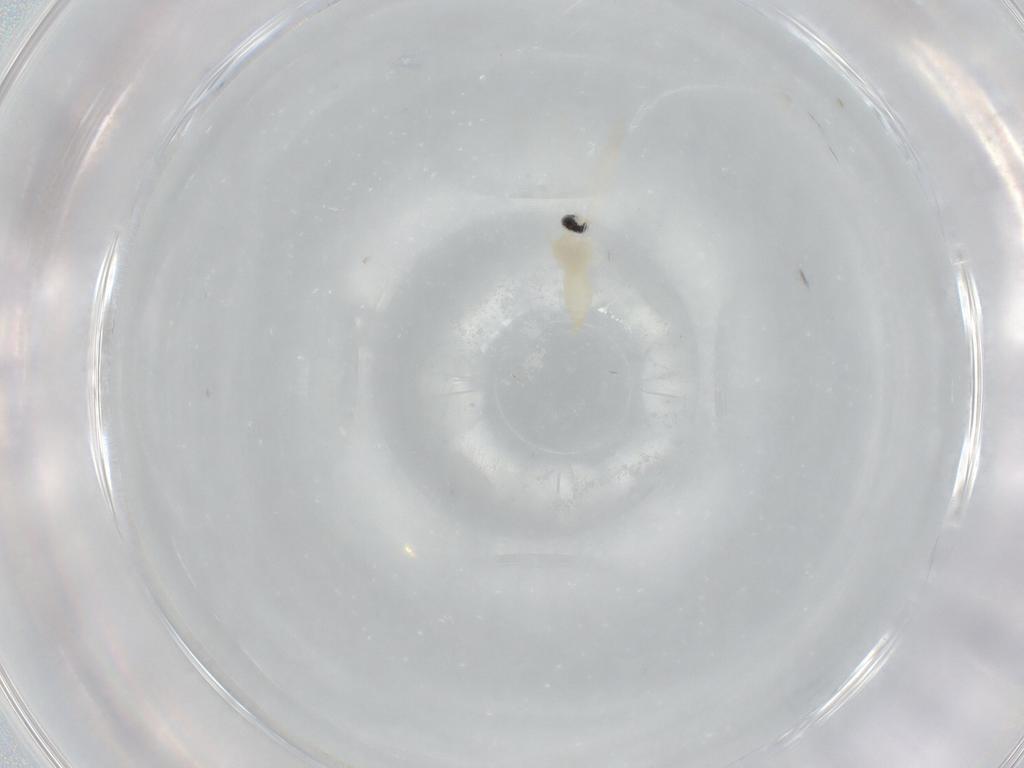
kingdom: Animalia
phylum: Arthropoda
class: Insecta
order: Diptera
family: Cecidomyiidae
